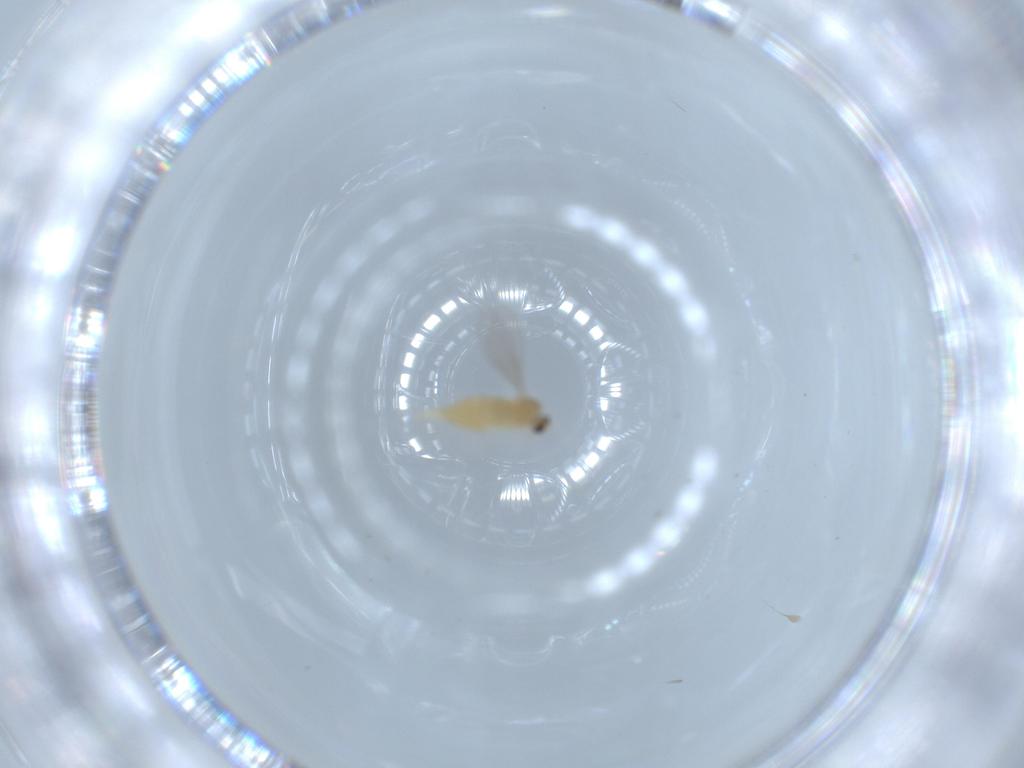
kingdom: Animalia
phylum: Arthropoda
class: Insecta
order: Diptera
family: Cecidomyiidae
